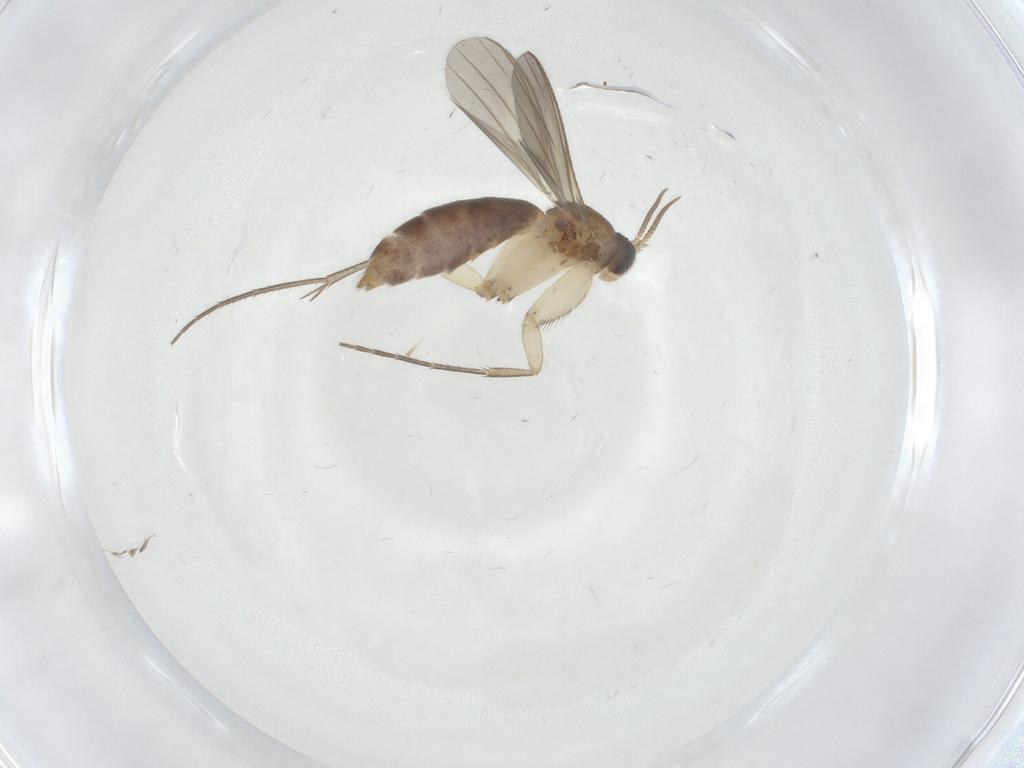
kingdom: Animalia
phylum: Arthropoda
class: Insecta
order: Diptera
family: Mycetophilidae
